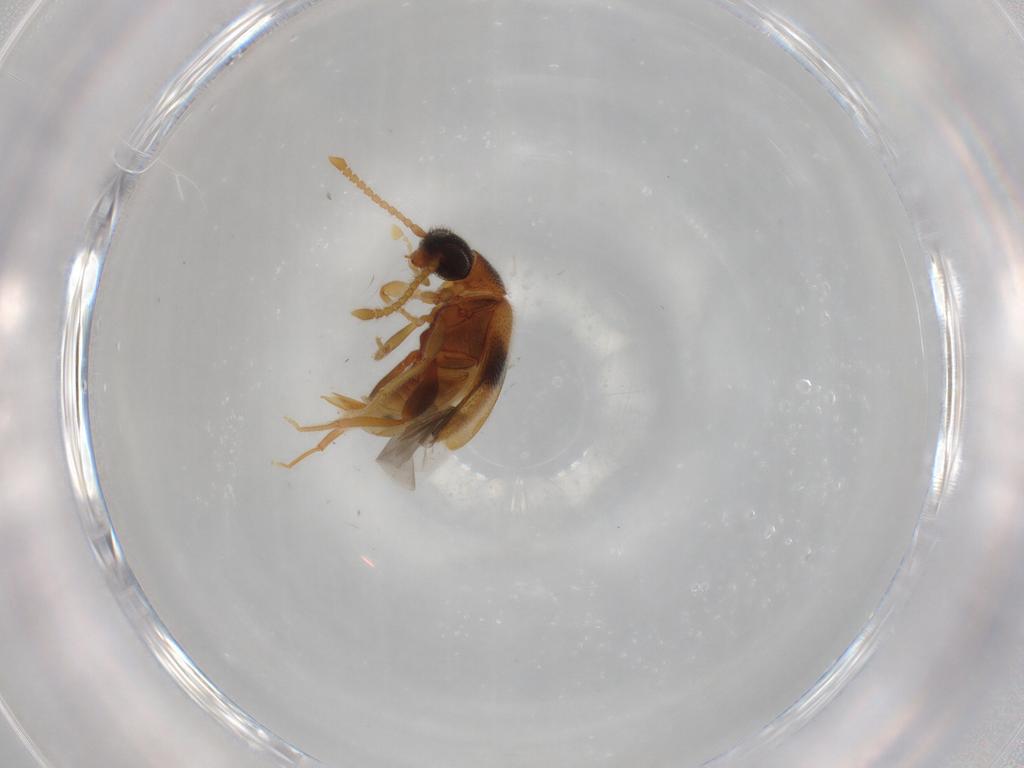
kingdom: Animalia
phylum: Arthropoda
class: Insecta
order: Coleoptera
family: Aderidae
